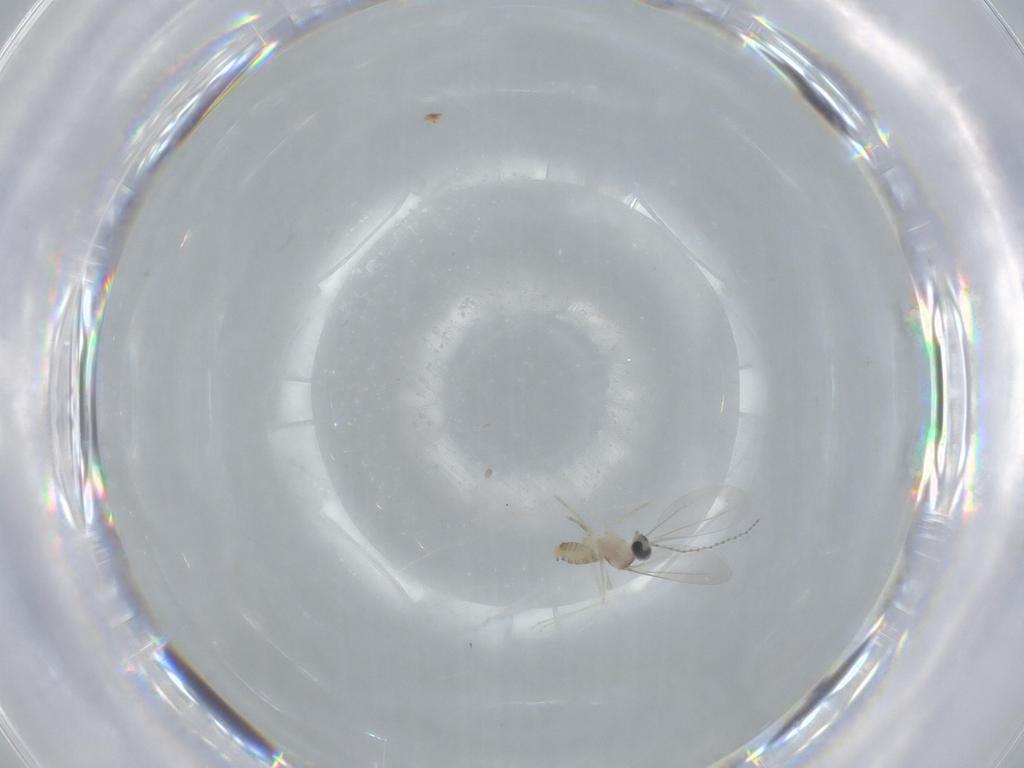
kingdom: Animalia
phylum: Arthropoda
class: Insecta
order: Diptera
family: Cecidomyiidae
